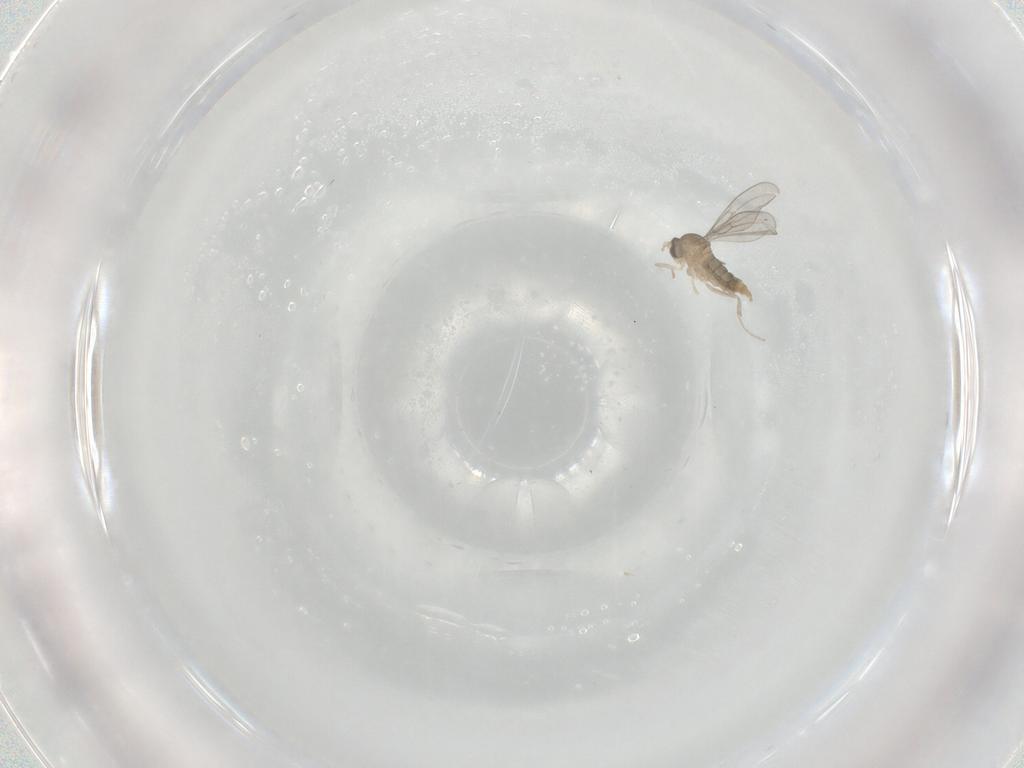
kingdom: Animalia
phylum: Arthropoda
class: Insecta
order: Diptera
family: Cecidomyiidae
